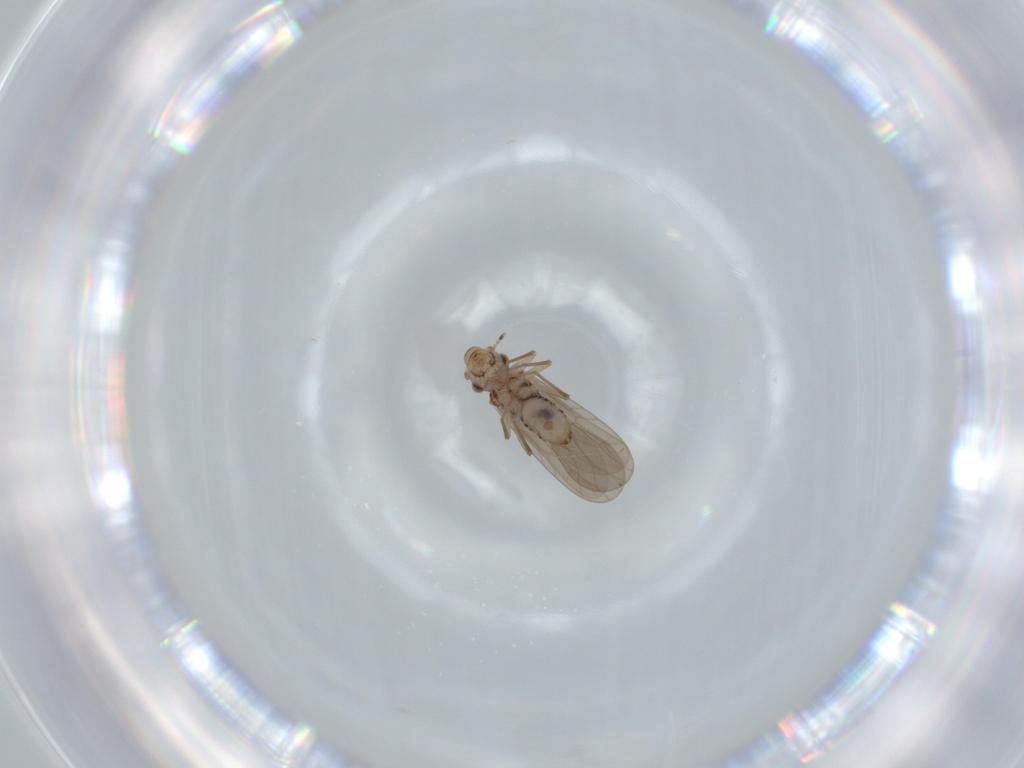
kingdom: Animalia
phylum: Arthropoda
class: Insecta
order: Psocodea
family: Lepidopsocidae
